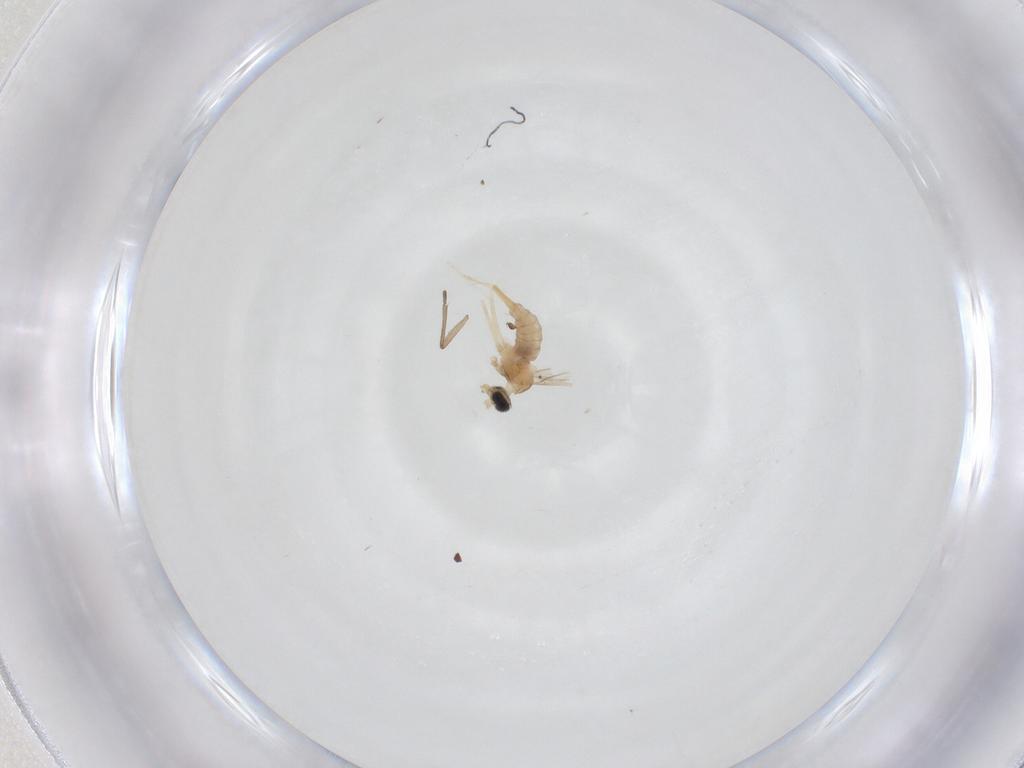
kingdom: Animalia
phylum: Arthropoda
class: Insecta
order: Diptera
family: Cecidomyiidae
